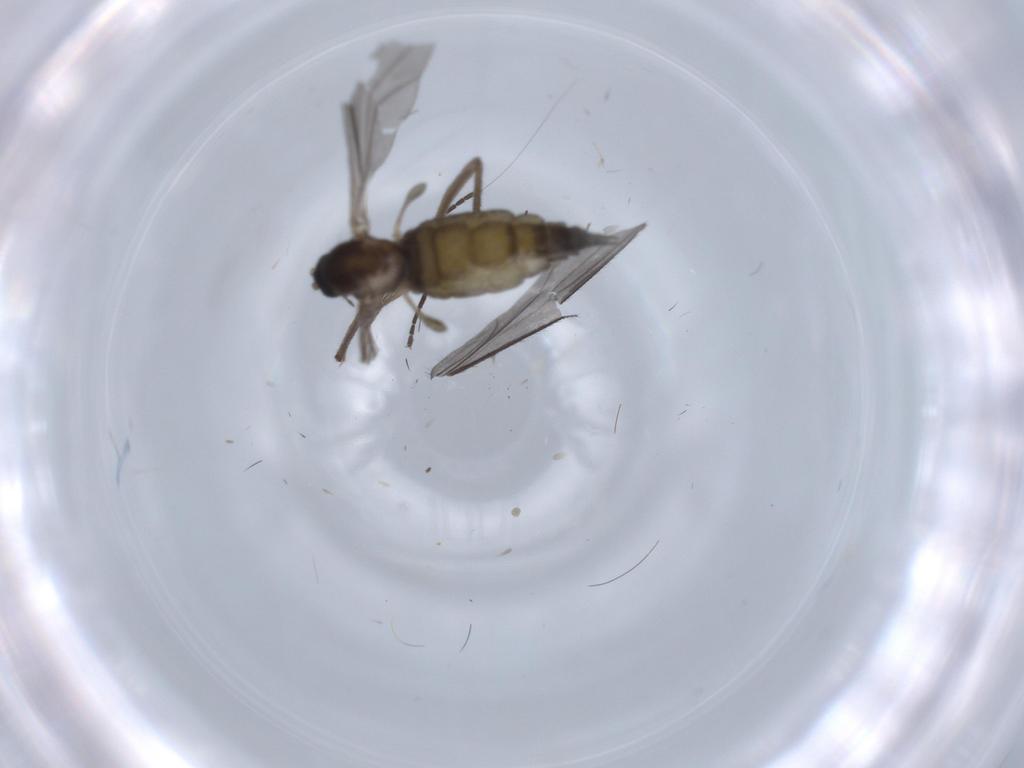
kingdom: Animalia
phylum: Arthropoda
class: Insecta
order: Diptera
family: Sciaridae
